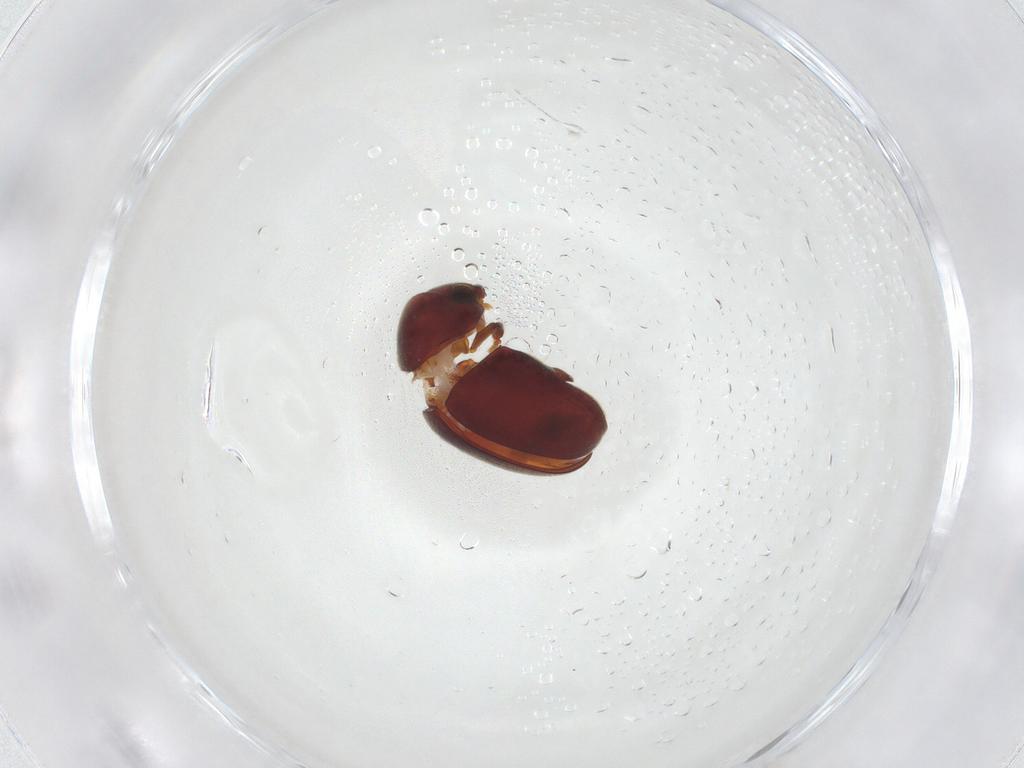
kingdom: Animalia
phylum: Arthropoda
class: Insecta
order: Coleoptera
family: Ptinidae
